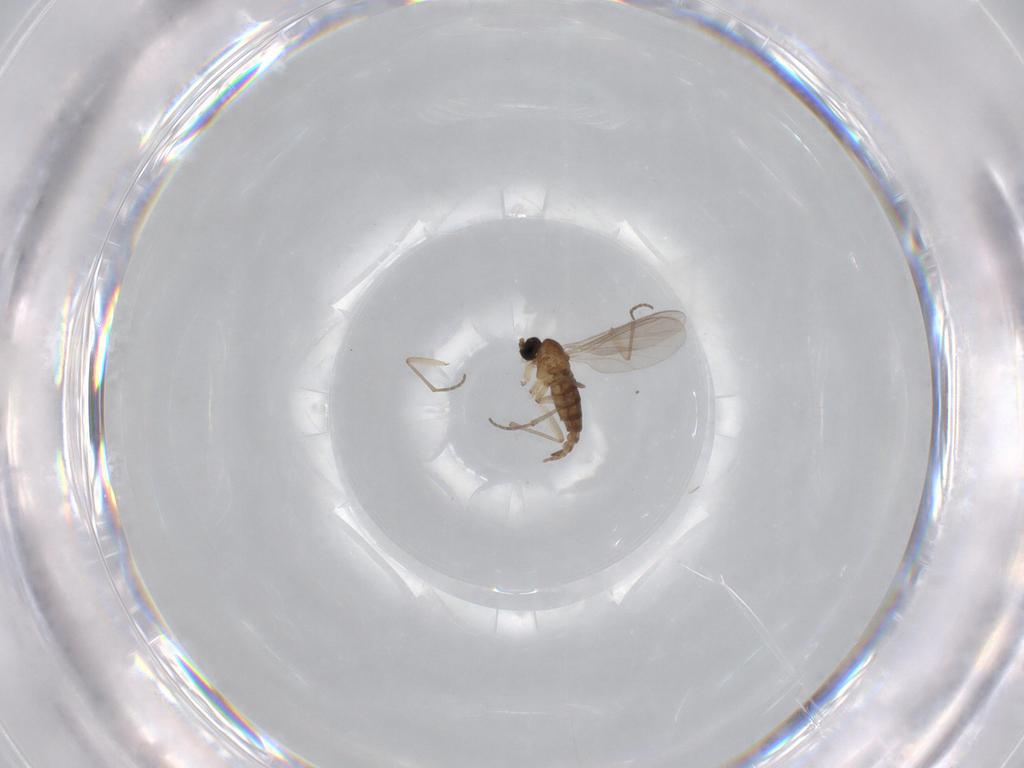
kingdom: Animalia
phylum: Arthropoda
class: Insecta
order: Diptera
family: Sciaridae
